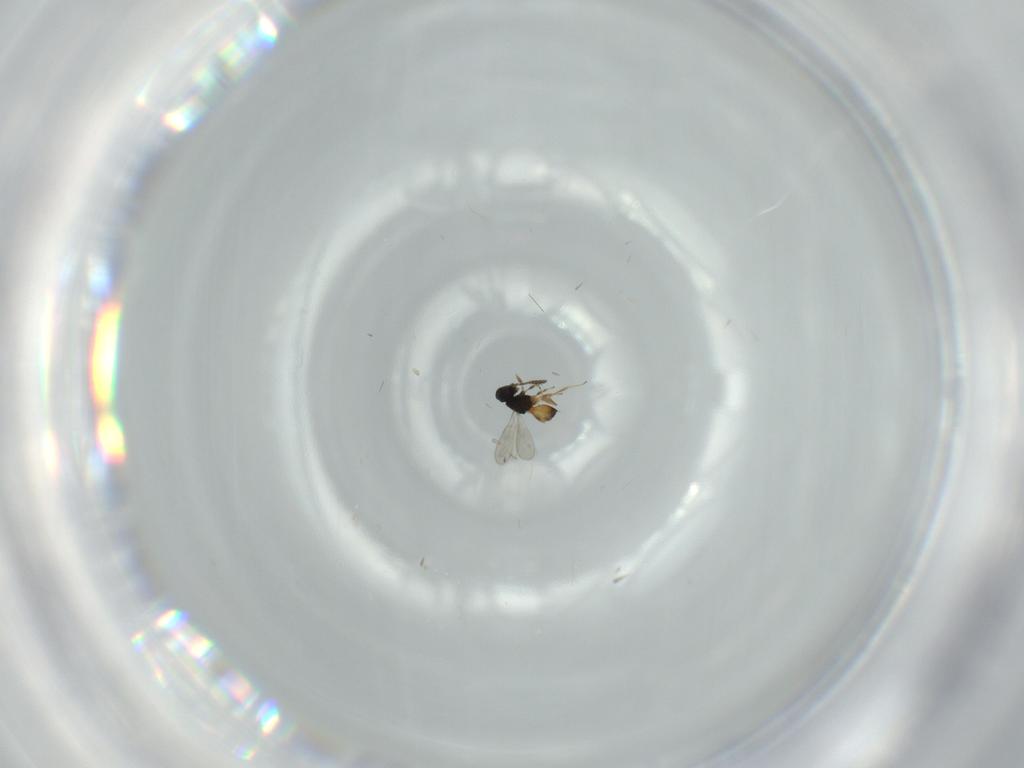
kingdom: Animalia
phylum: Arthropoda
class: Insecta
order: Hymenoptera
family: Scelionidae
